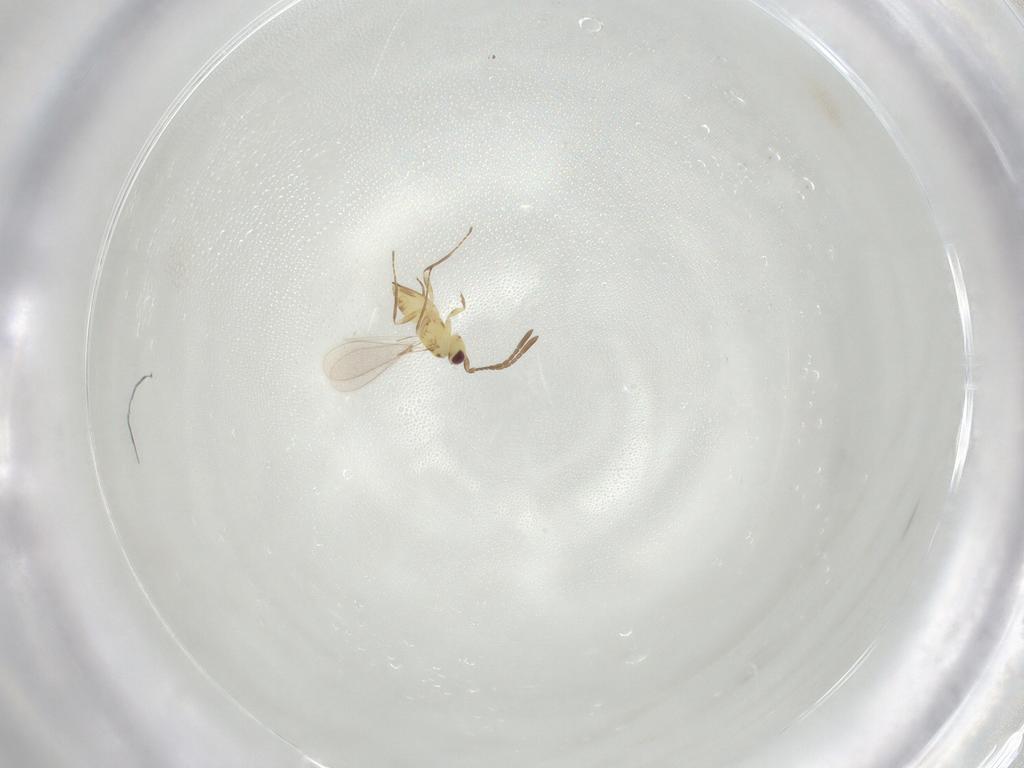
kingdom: Animalia
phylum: Arthropoda
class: Insecta
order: Hymenoptera
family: Mymaridae
